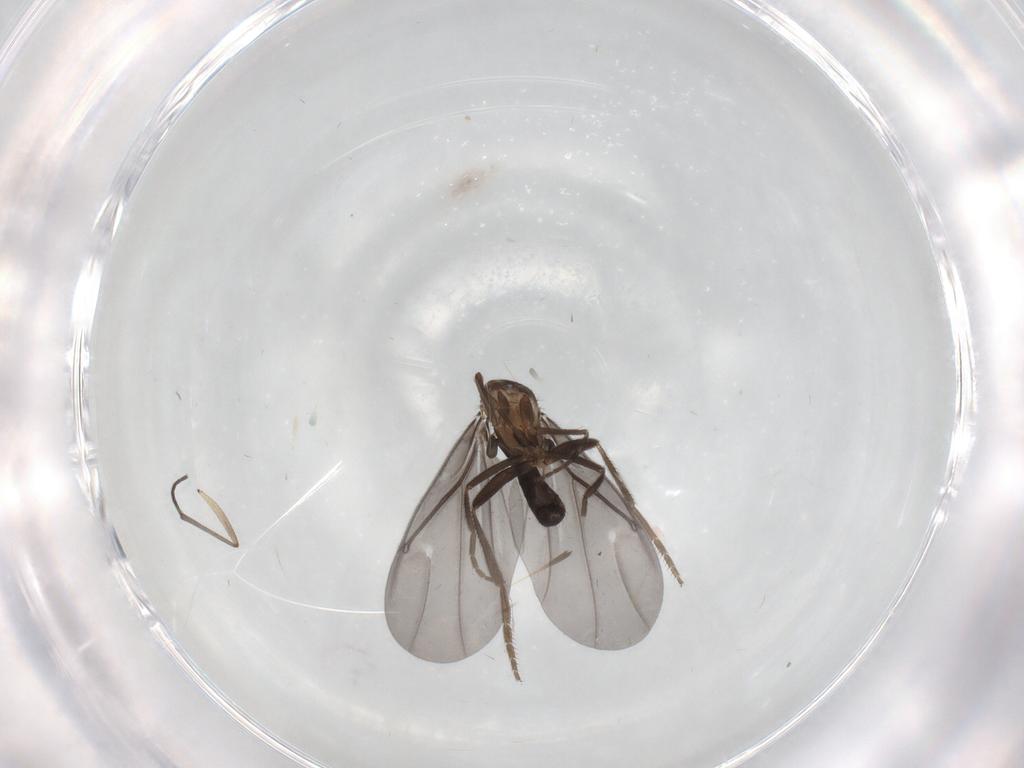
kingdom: Animalia
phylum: Arthropoda
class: Insecta
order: Diptera
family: Phoridae
